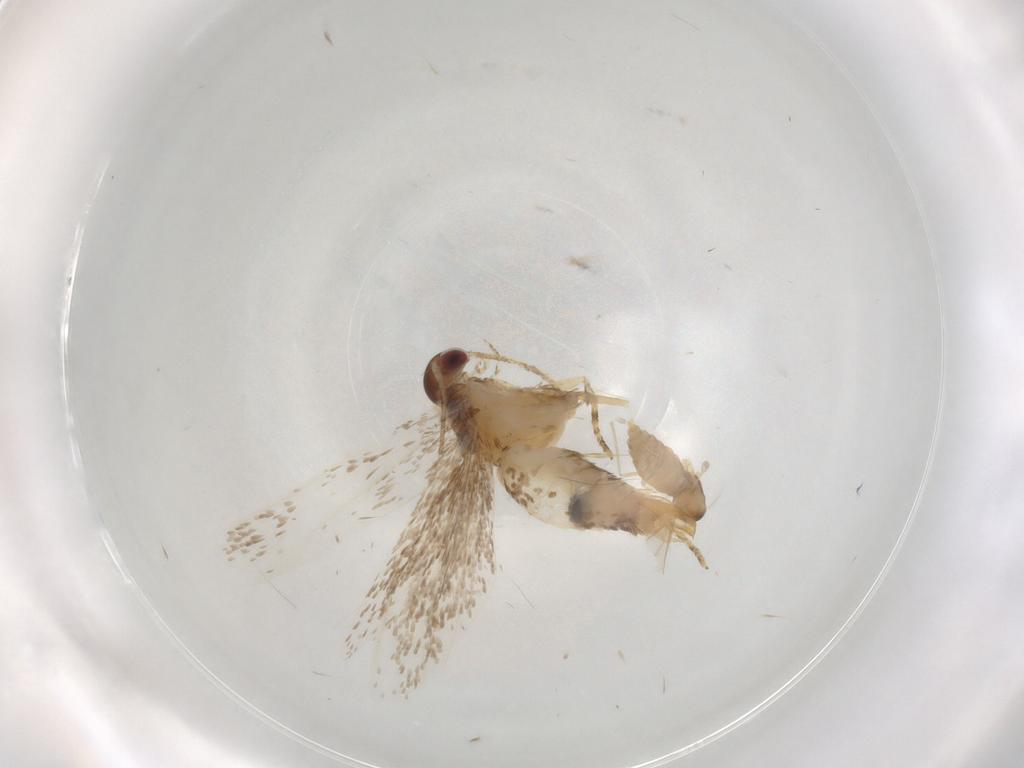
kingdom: Animalia
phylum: Arthropoda
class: Insecta
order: Lepidoptera
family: Oecophoridae
